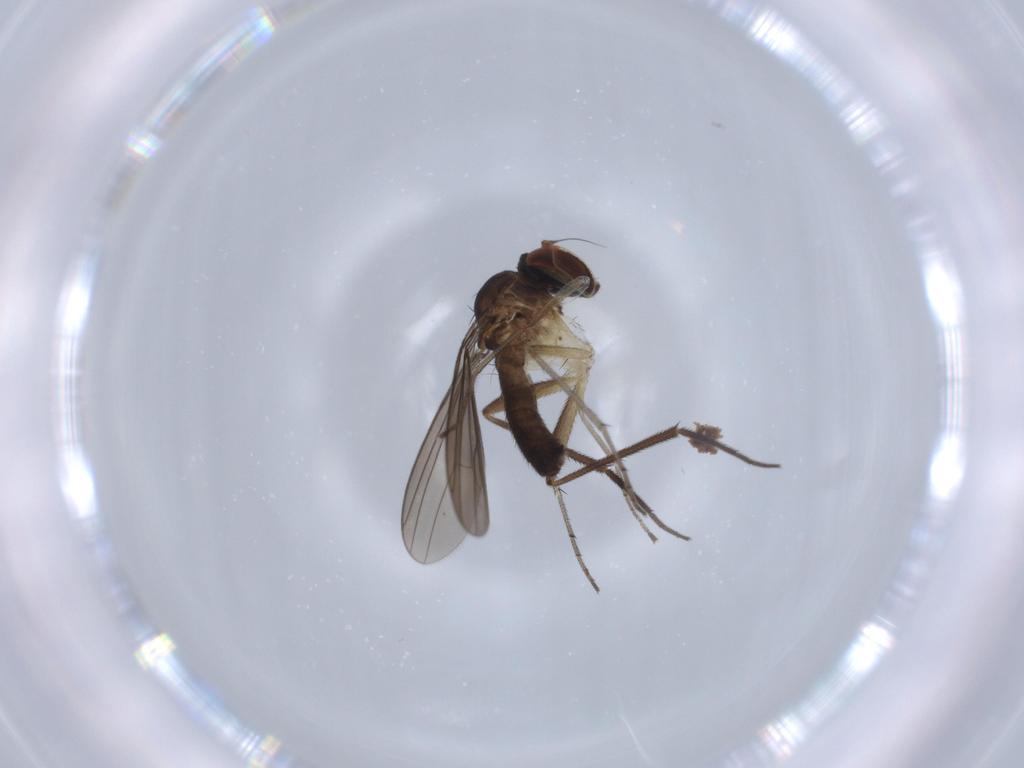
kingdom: Animalia
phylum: Arthropoda
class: Insecta
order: Diptera
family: Dolichopodidae
